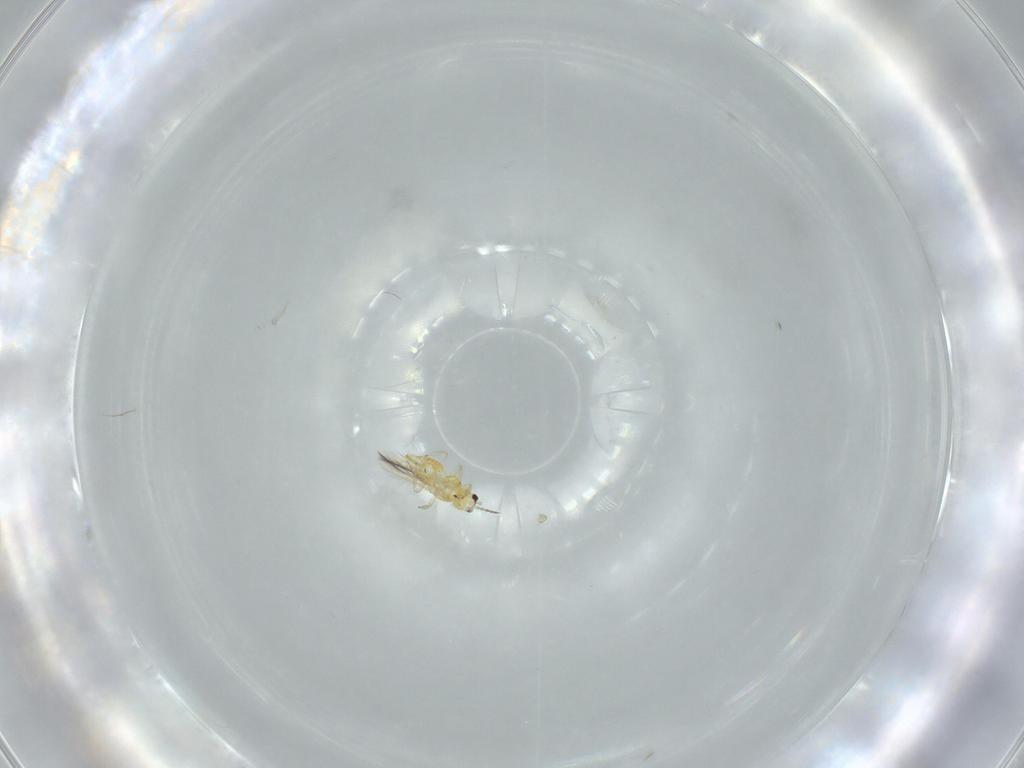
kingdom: Animalia
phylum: Arthropoda
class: Insecta
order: Thysanoptera
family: Thripidae
